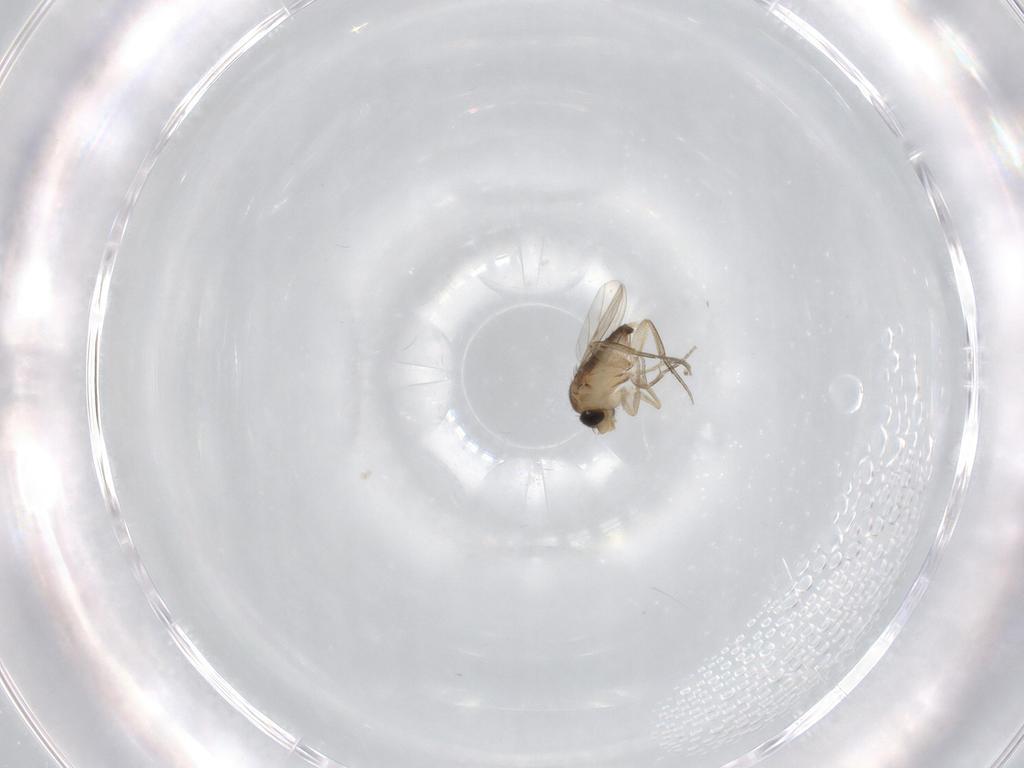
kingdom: Animalia
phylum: Arthropoda
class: Insecta
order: Diptera
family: Phoridae
